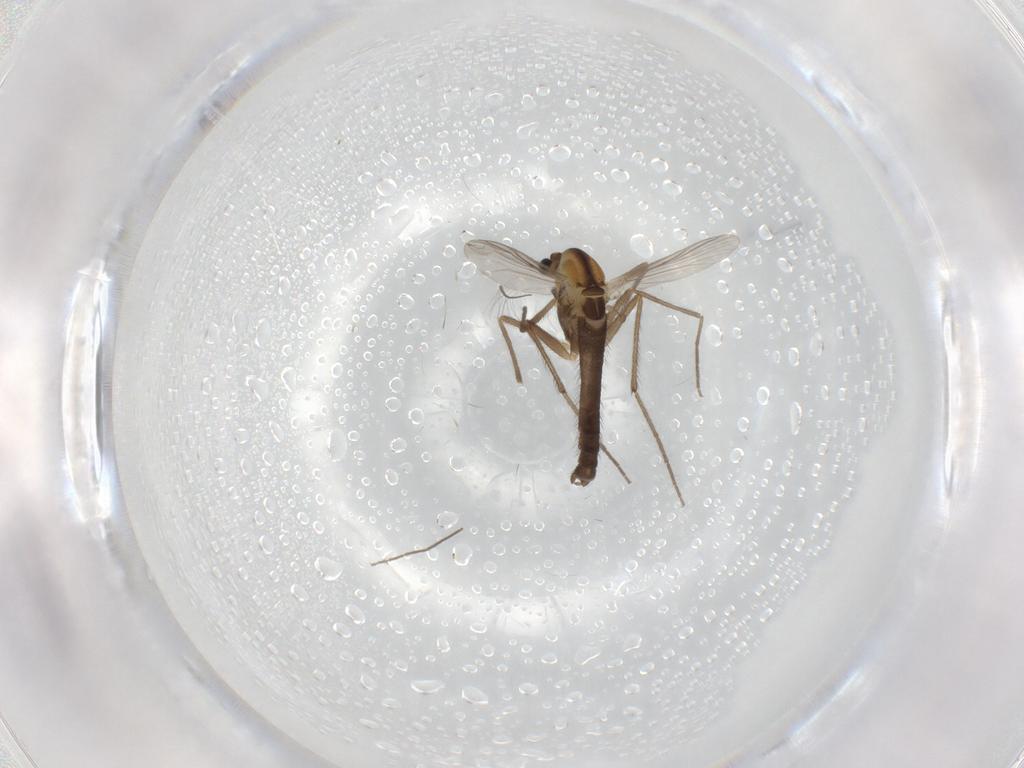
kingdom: Animalia
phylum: Arthropoda
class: Insecta
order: Diptera
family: Chironomidae
